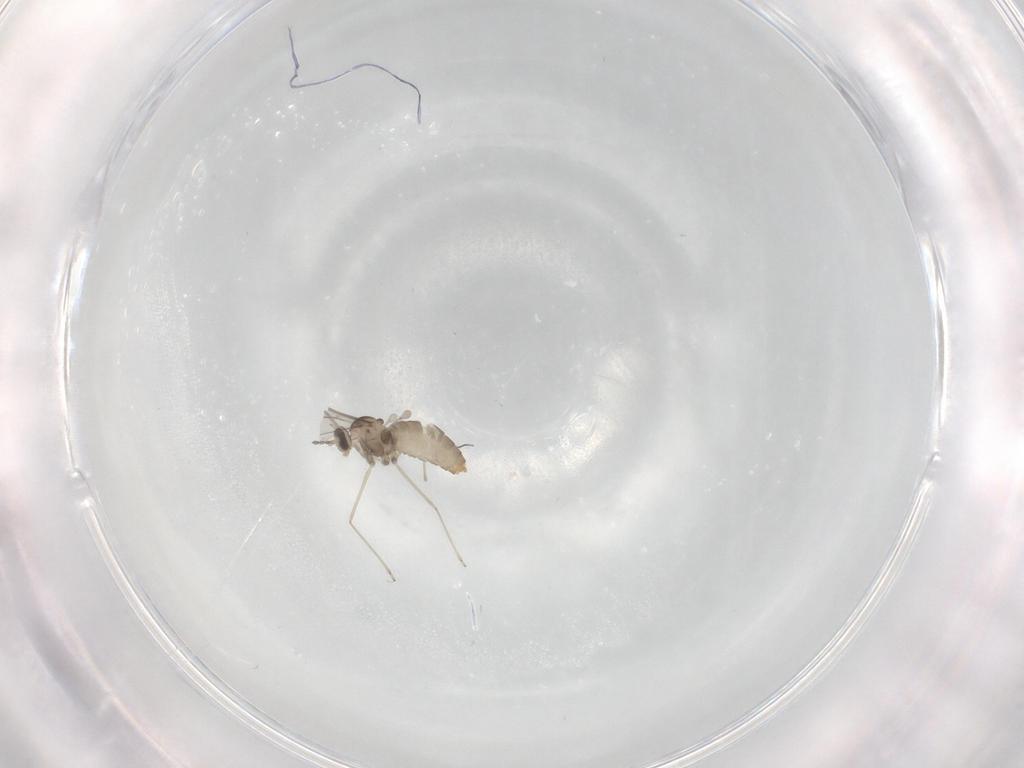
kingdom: Animalia
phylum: Arthropoda
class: Insecta
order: Diptera
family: Cecidomyiidae
